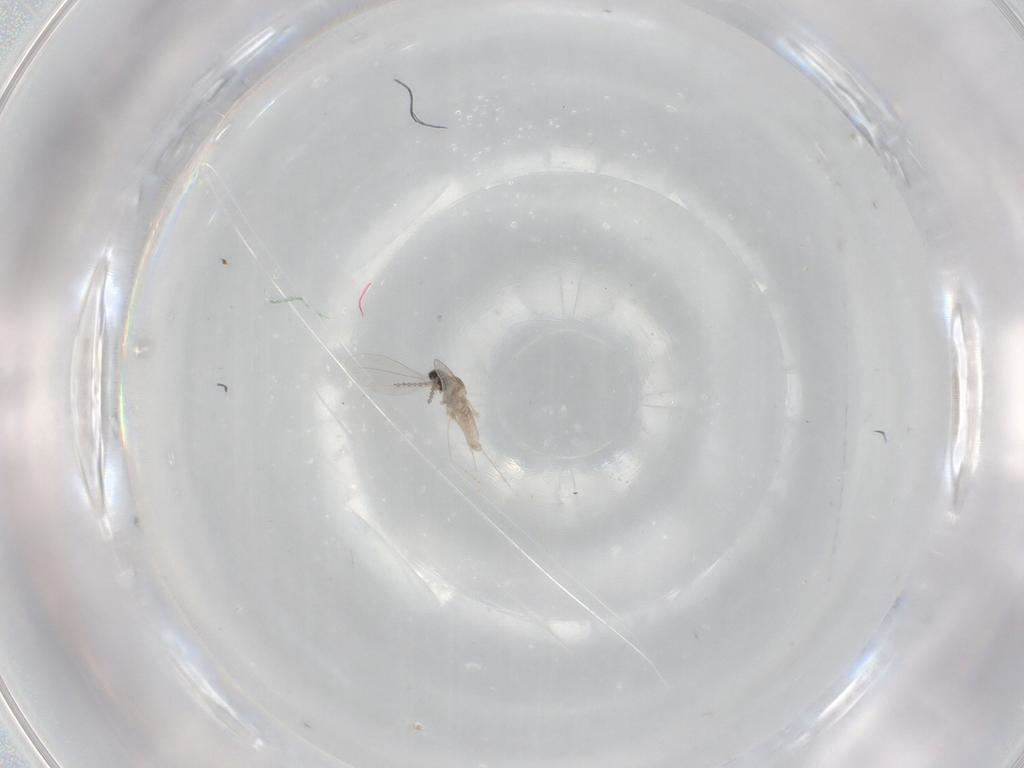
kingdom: Animalia
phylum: Arthropoda
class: Insecta
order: Diptera
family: Cecidomyiidae
